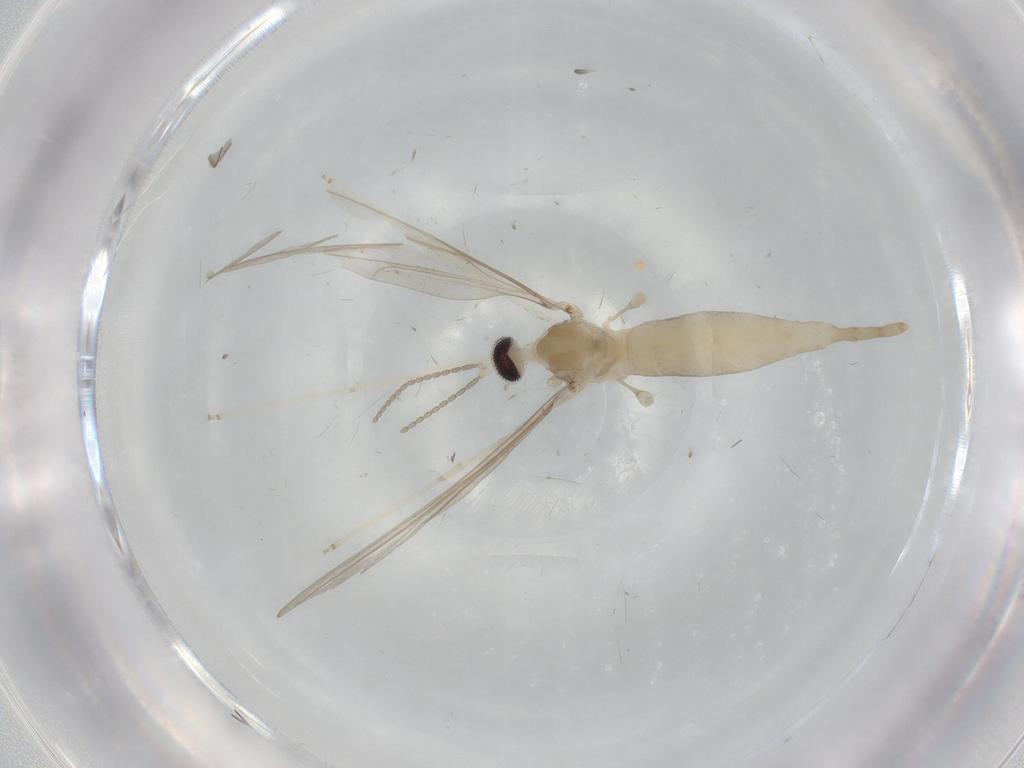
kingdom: Animalia
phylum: Arthropoda
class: Insecta
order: Diptera
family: Cecidomyiidae
